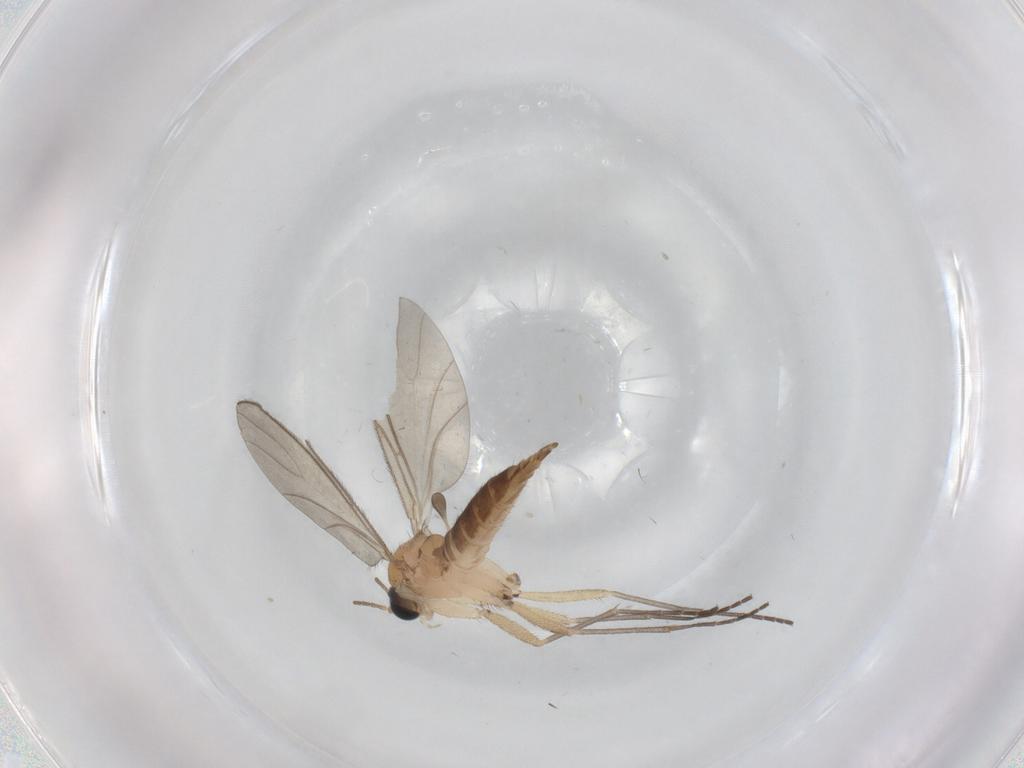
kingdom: Animalia
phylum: Arthropoda
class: Insecta
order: Diptera
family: Sciaridae
